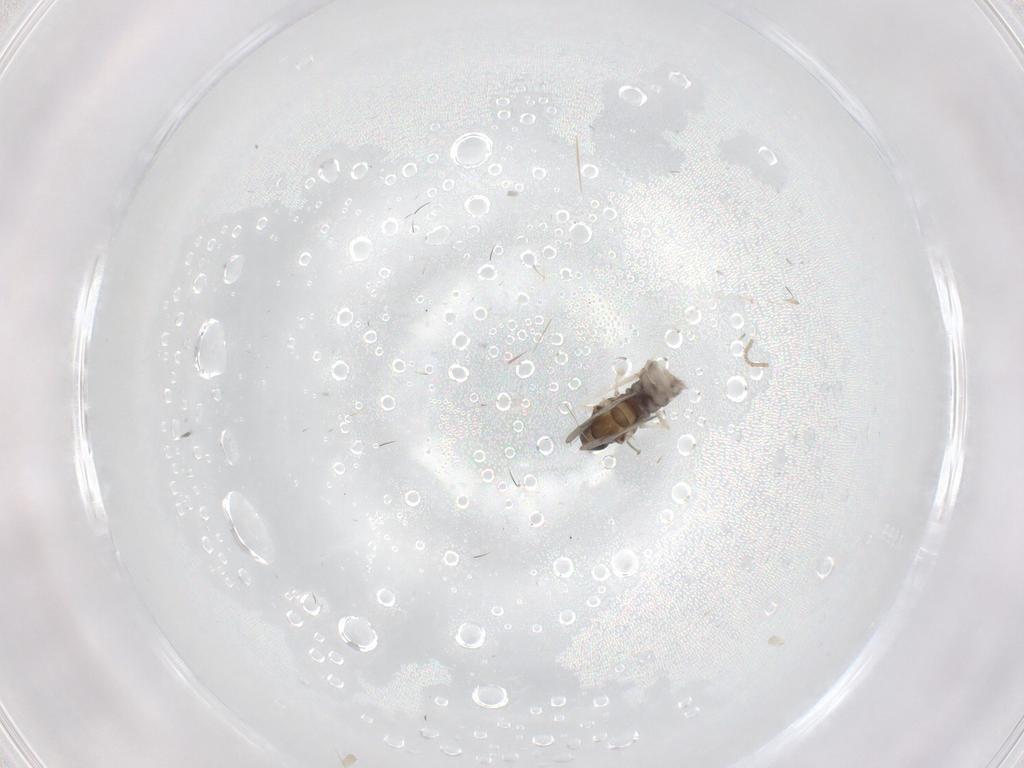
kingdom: Animalia
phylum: Arthropoda
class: Insecta
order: Diptera
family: Cecidomyiidae
